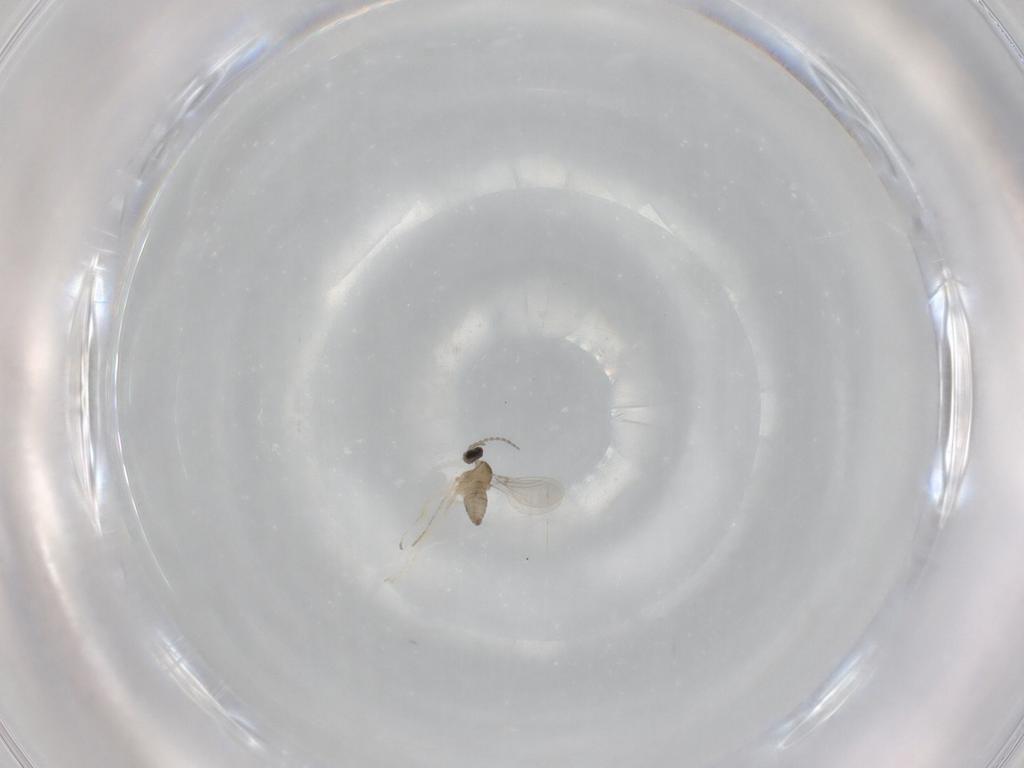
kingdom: Animalia
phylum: Arthropoda
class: Insecta
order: Diptera
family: Cecidomyiidae
